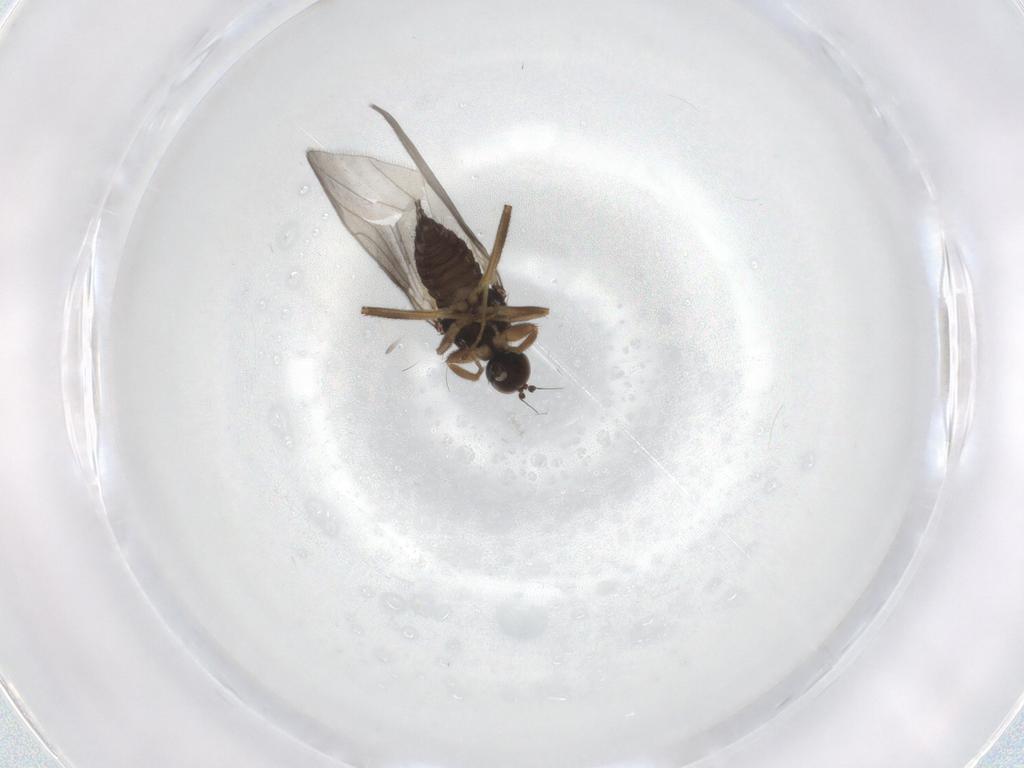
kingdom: Animalia
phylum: Arthropoda
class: Insecta
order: Diptera
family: Hybotidae
